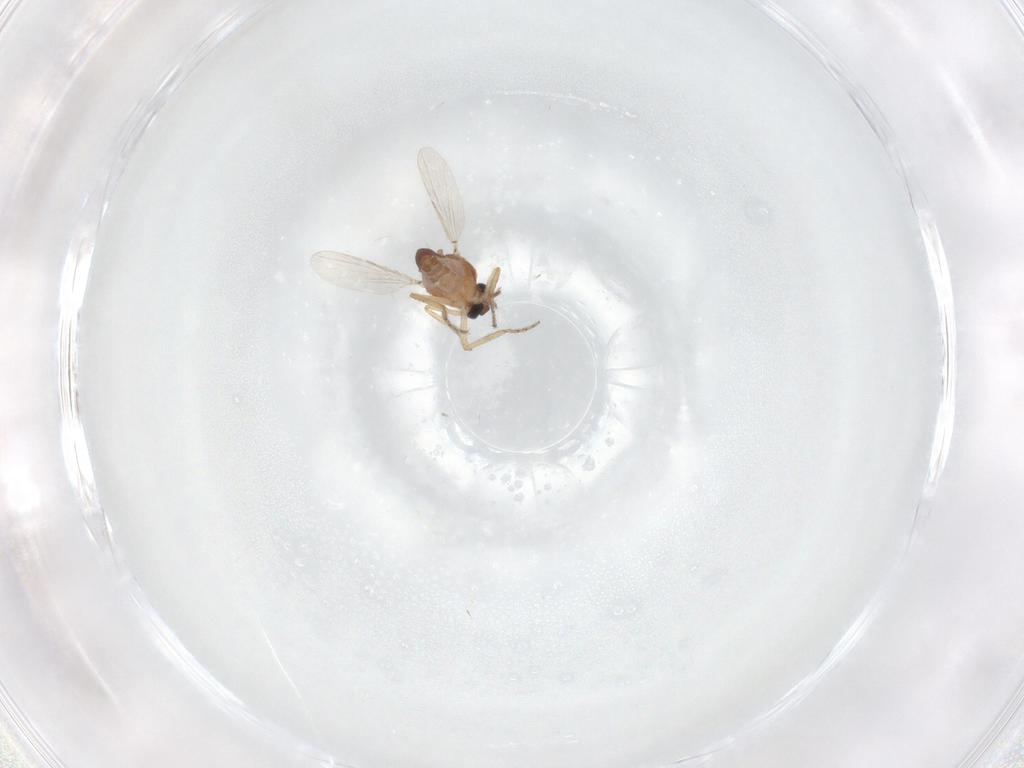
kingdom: Animalia
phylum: Arthropoda
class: Insecta
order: Diptera
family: Ceratopogonidae
